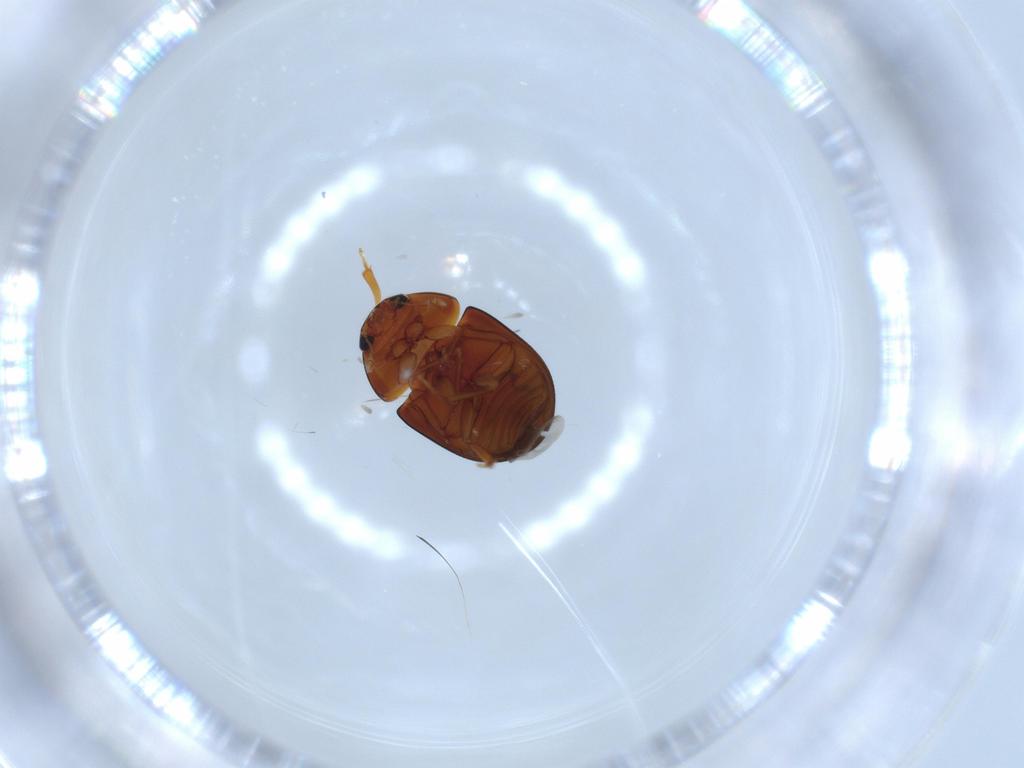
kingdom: Animalia
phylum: Arthropoda
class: Insecta
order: Coleoptera
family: Phalacridae
